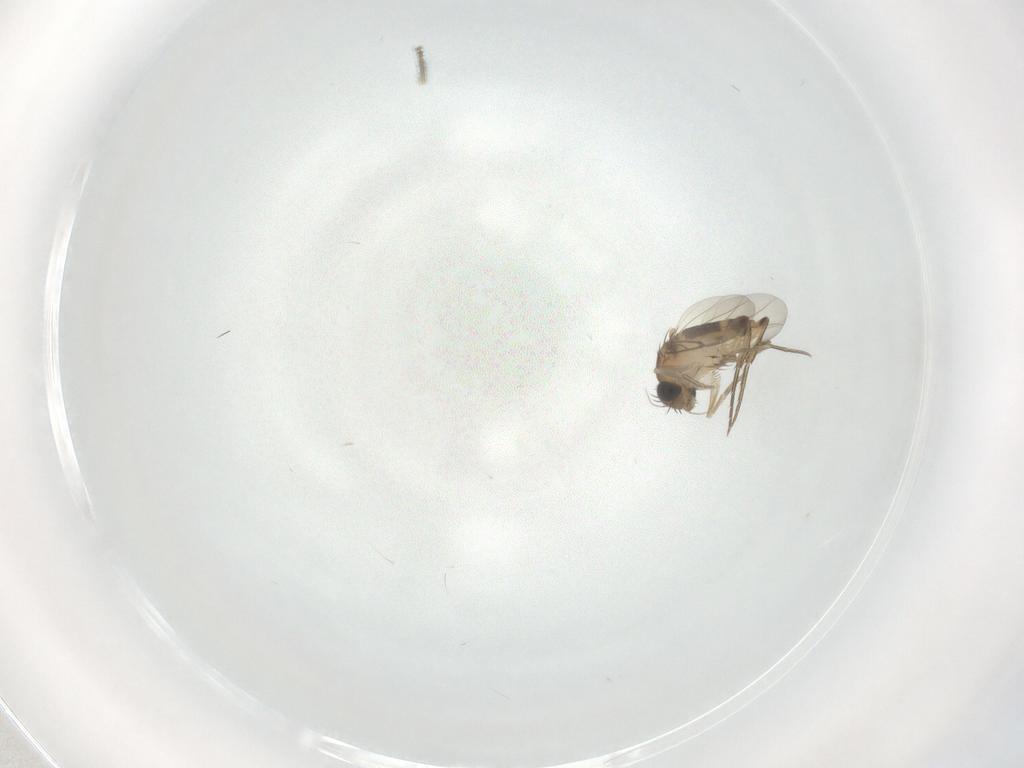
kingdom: Animalia
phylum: Arthropoda
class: Insecta
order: Diptera
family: Phoridae
